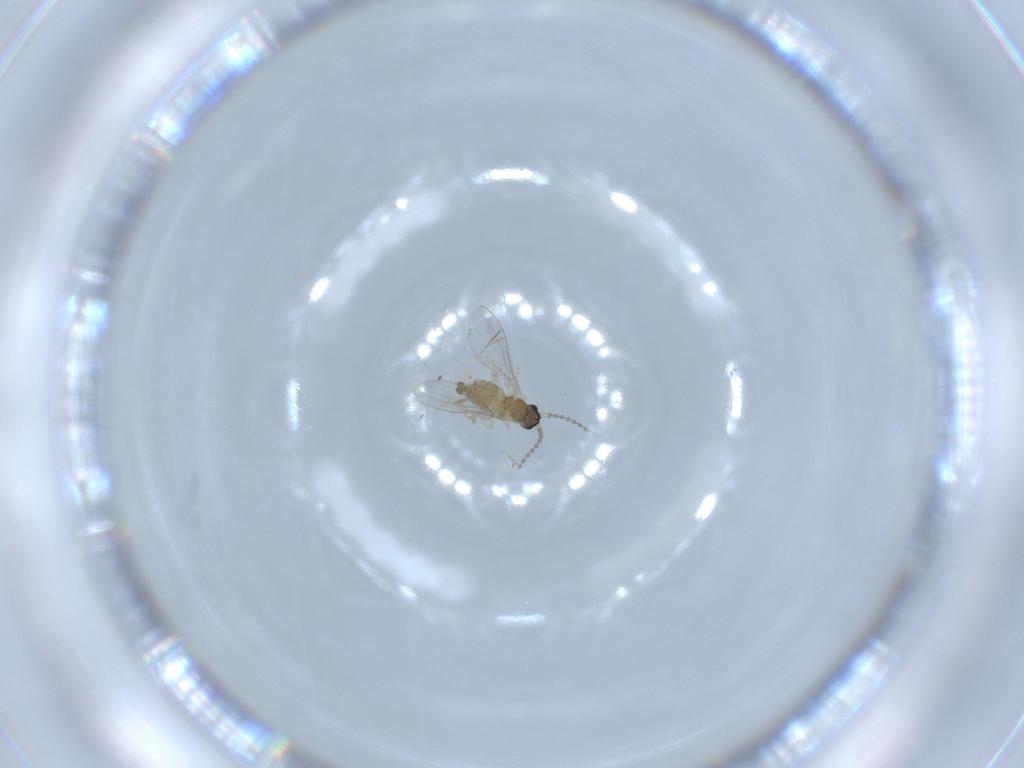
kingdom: Animalia
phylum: Arthropoda
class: Insecta
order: Diptera
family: Cecidomyiidae
